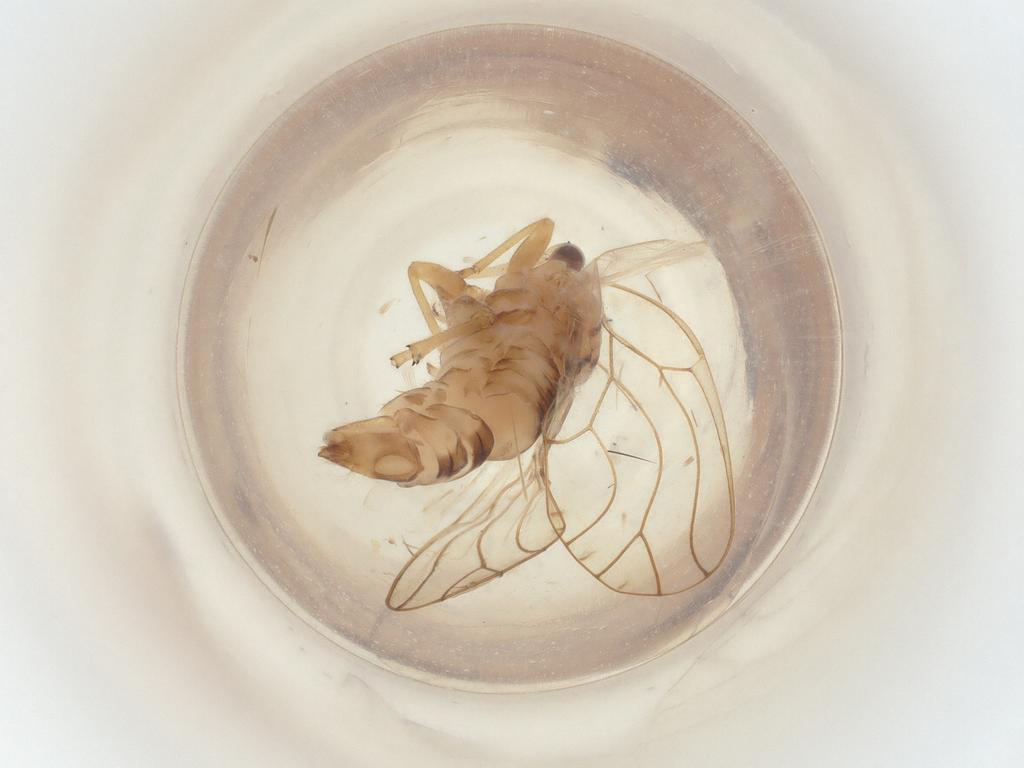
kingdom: Animalia
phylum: Arthropoda
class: Insecta
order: Hymenoptera
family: Chrysididae
